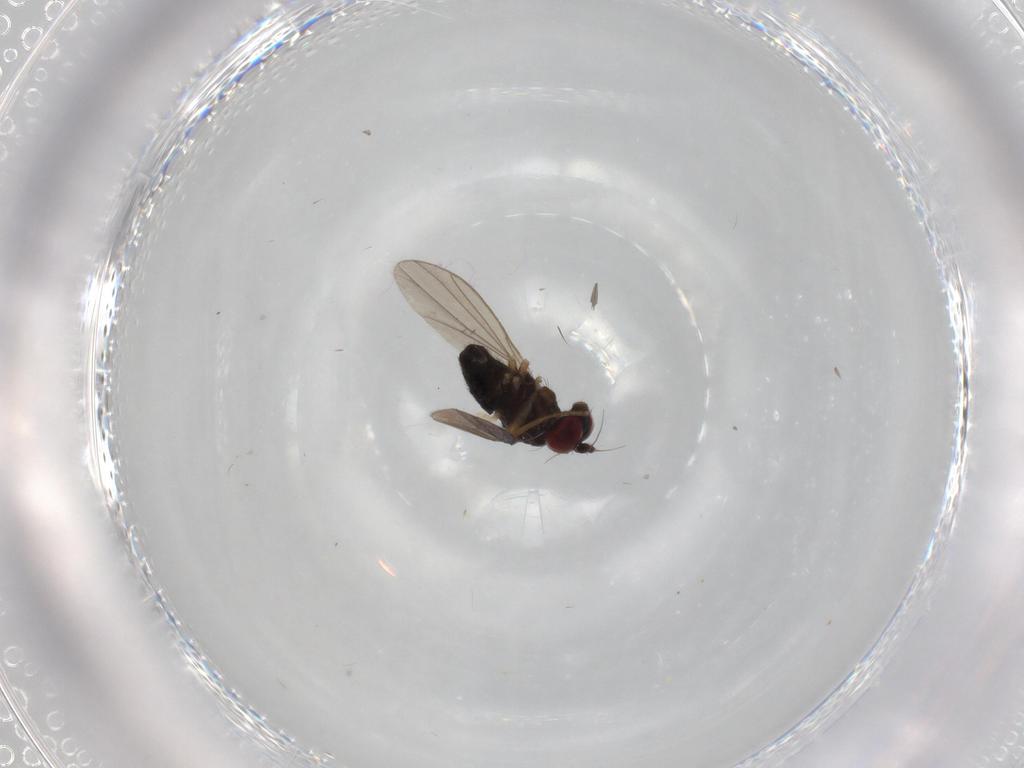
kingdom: Animalia
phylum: Arthropoda
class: Insecta
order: Diptera
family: Dolichopodidae
